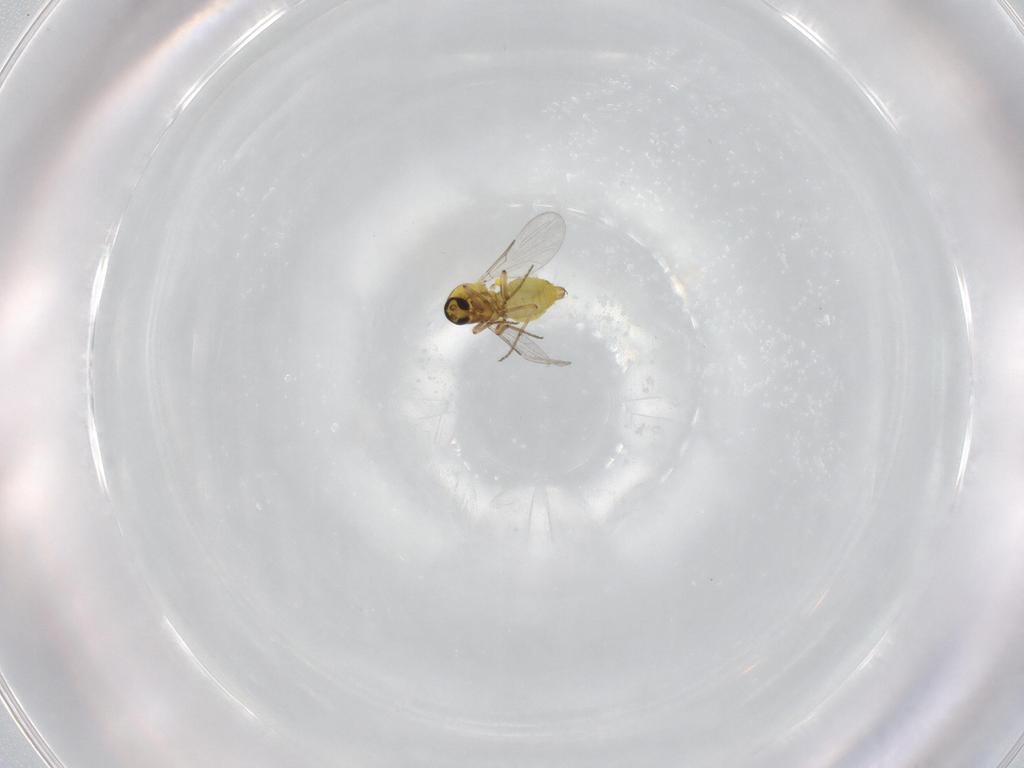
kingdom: Animalia
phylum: Arthropoda
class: Insecta
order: Diptera
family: Ceratopogonidae
